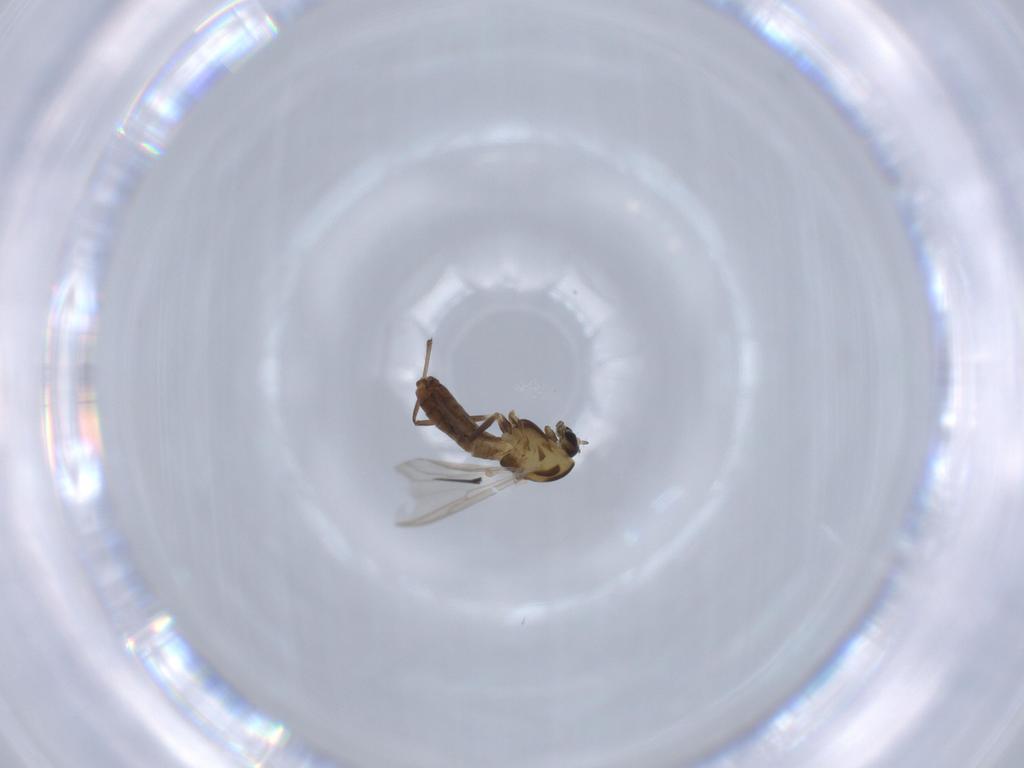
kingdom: Animalia
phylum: Arthropoda
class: Insecta
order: Diptera
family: Chironomidae
